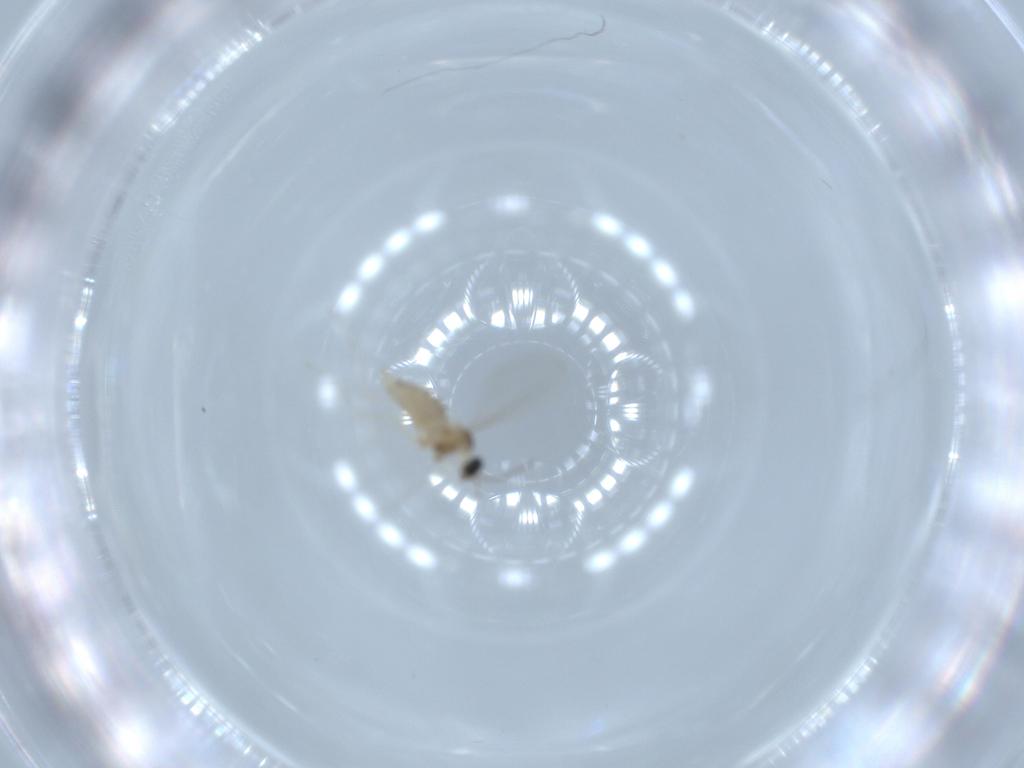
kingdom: Animalia
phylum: Arthropoda
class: Insecta
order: Diptera
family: Cecidomyiidae
